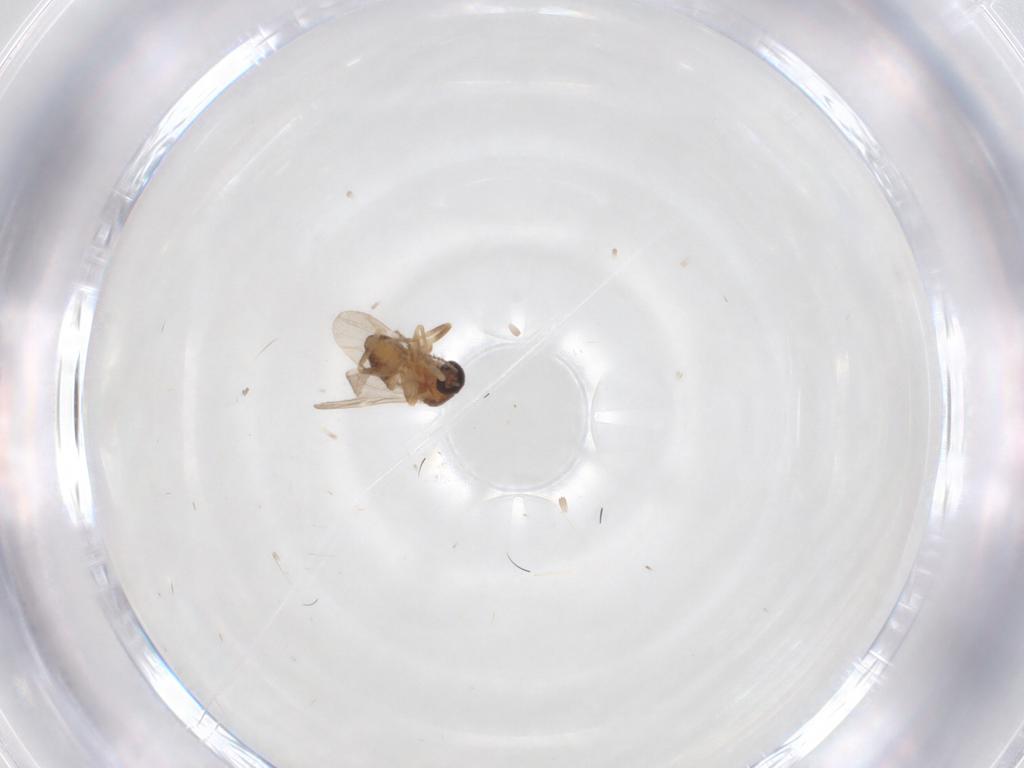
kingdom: Animalia
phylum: Arthropoda
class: Insecta
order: Diptera
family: Ceratopogonidae
